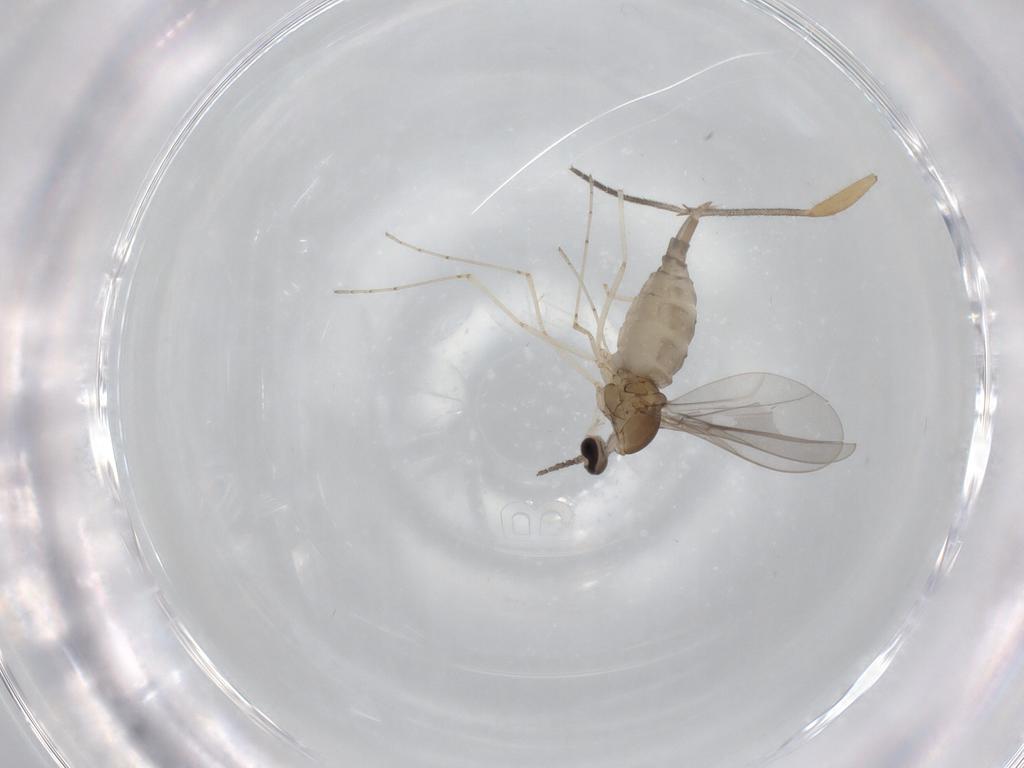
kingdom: Animalia
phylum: Arthropoda
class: Insecta
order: Diptera
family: Cecidomyiidae
